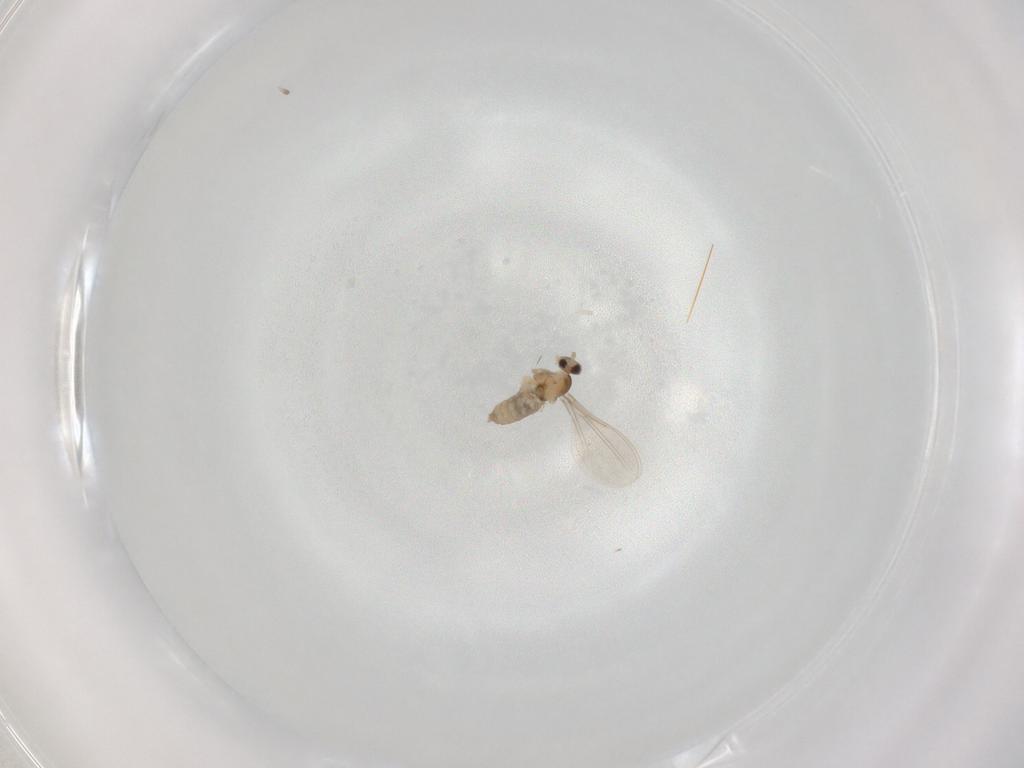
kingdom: Animalia
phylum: Arthropoda
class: Insecta
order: Diptera
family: Cecidomyiidae
